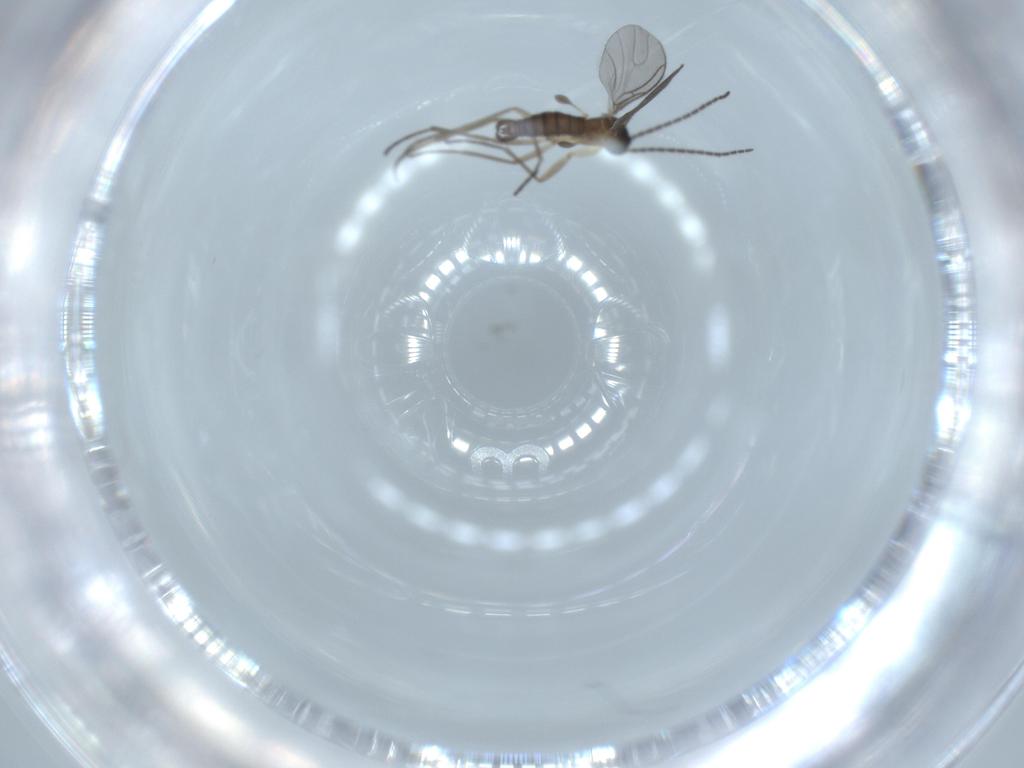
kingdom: Animalia
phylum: Arthropoda
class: Insecta
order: Diptera
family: Sciaridae
